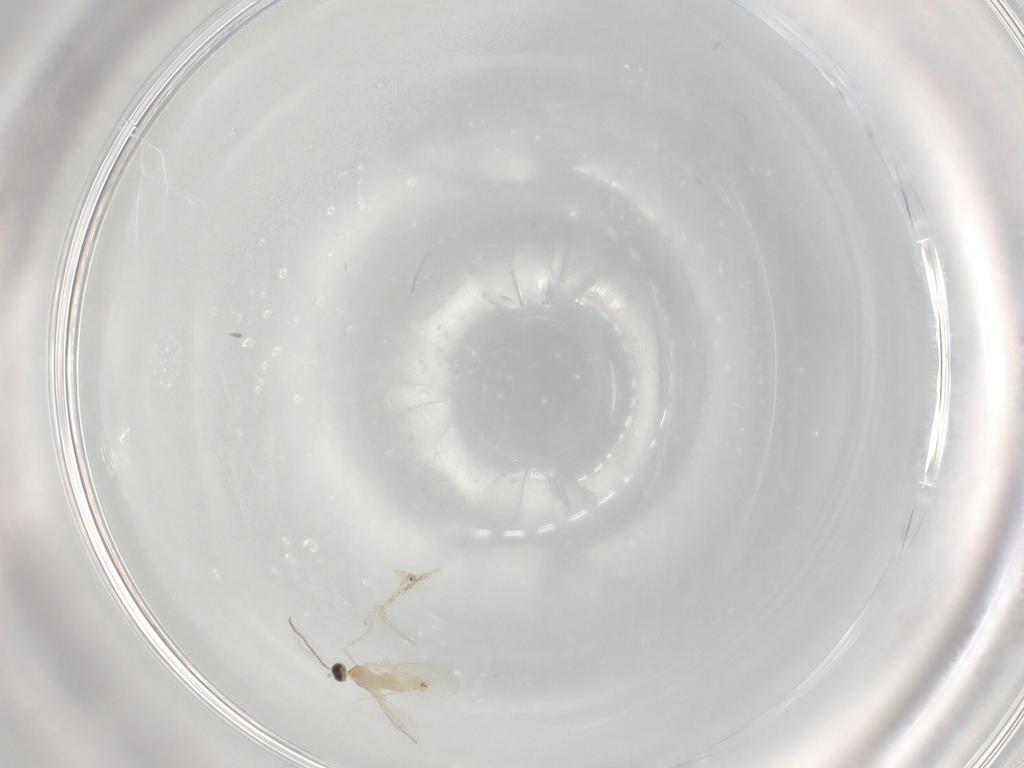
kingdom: Animalia
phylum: Arthropoda
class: Insecta
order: Diptera
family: Cecidomyiidae
